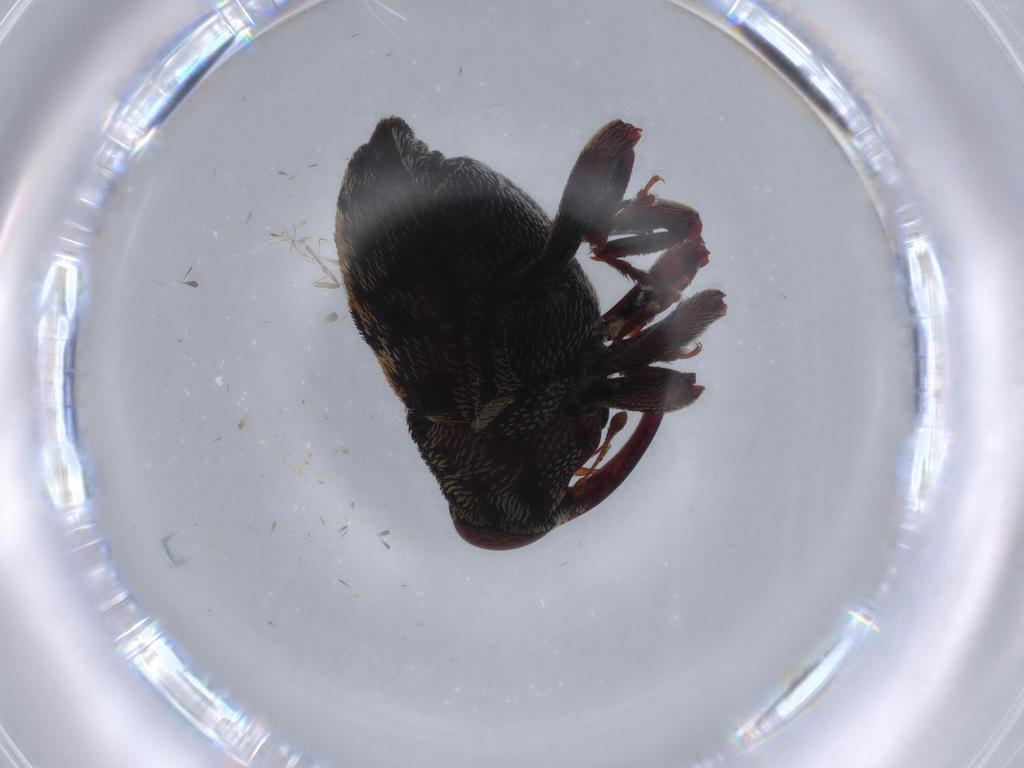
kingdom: Animalia
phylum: Arthropoda
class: Insecta
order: Coleoptera
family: Curculionidae
